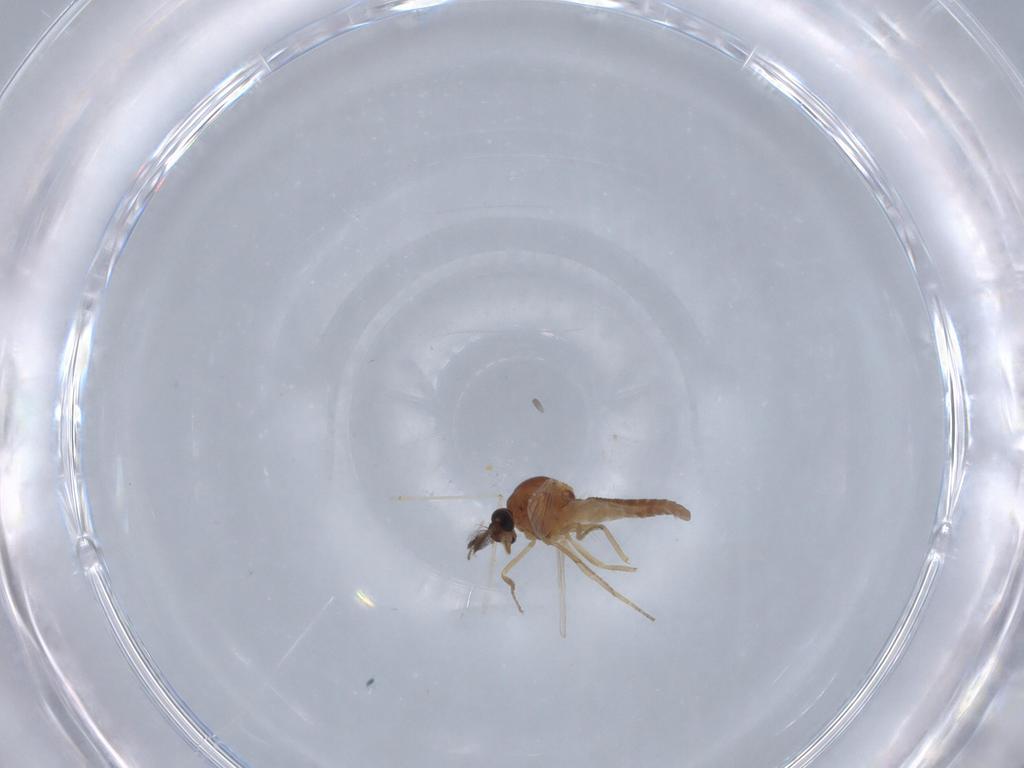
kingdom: Animalia
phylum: Arthropoda
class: Insecta
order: Diptera
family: Ceratopogonidae
